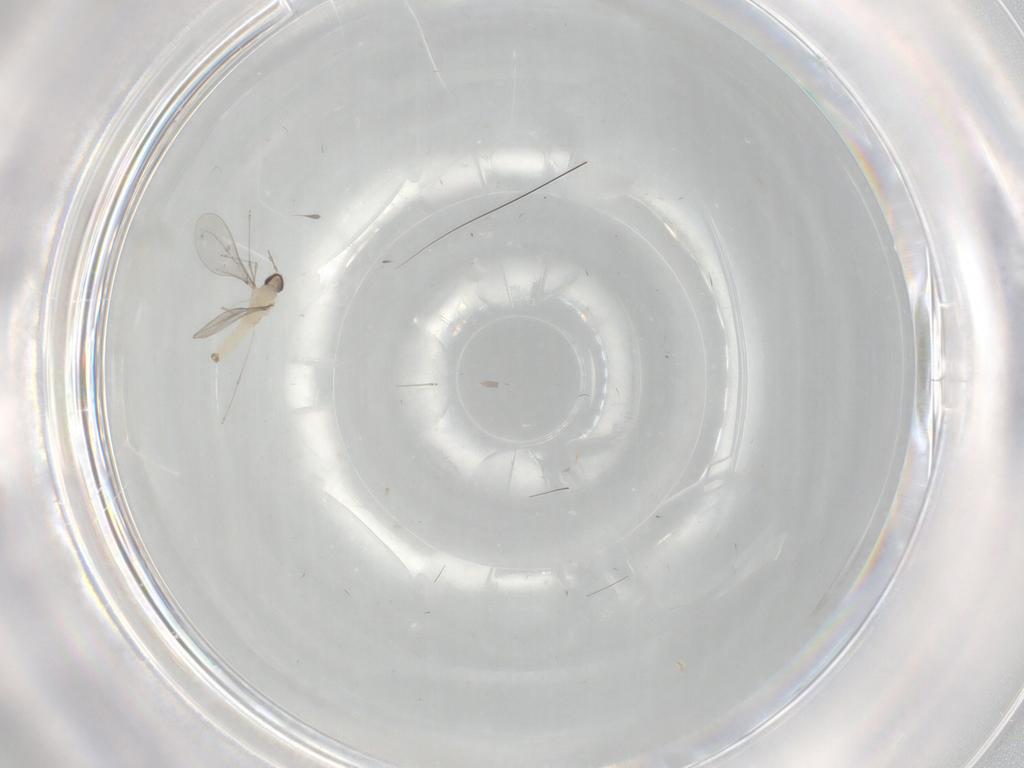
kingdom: Animalia
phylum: Arthropoda
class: Insecta
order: Diptera
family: Cecidomyiidae
